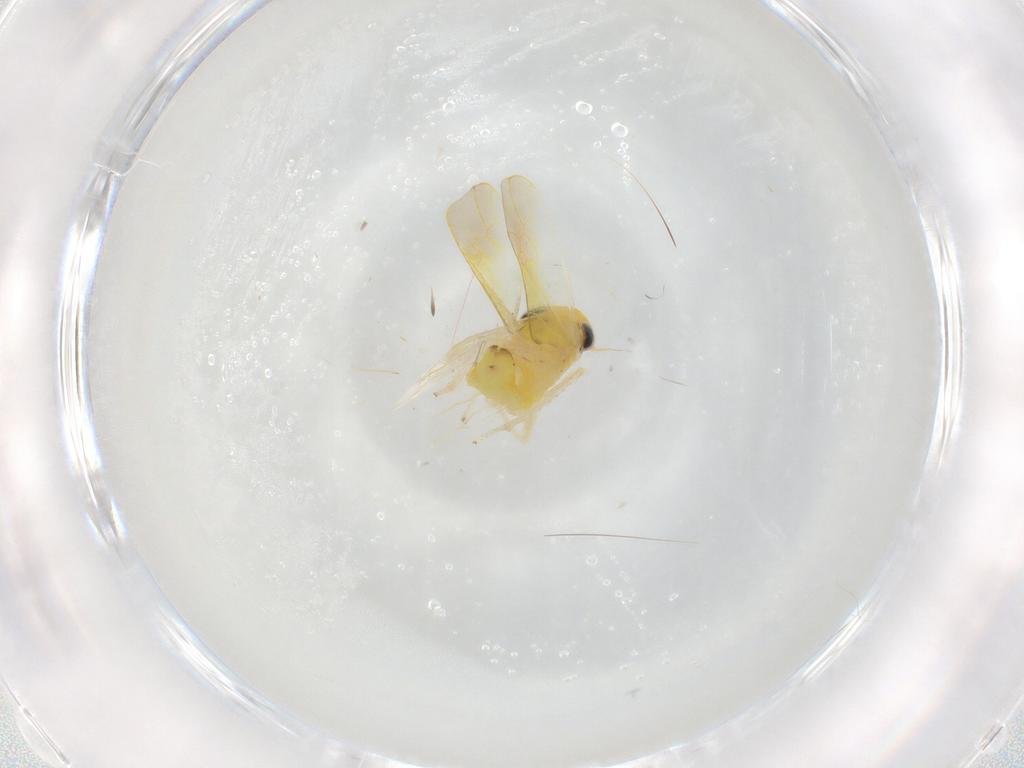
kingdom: Animalia
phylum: Arthropoda
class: Insecta
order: Hemiptera
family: Cicadellidae
